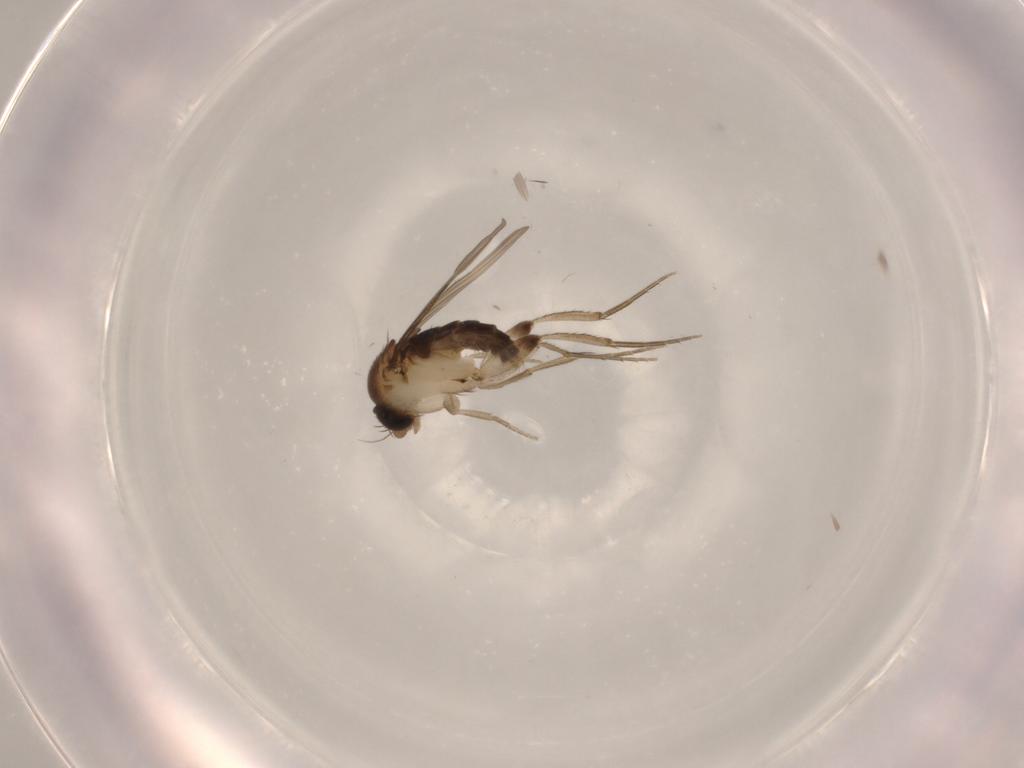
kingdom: Animalia
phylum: Arthropoda
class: Insecta
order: Diptera
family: Phoridae
